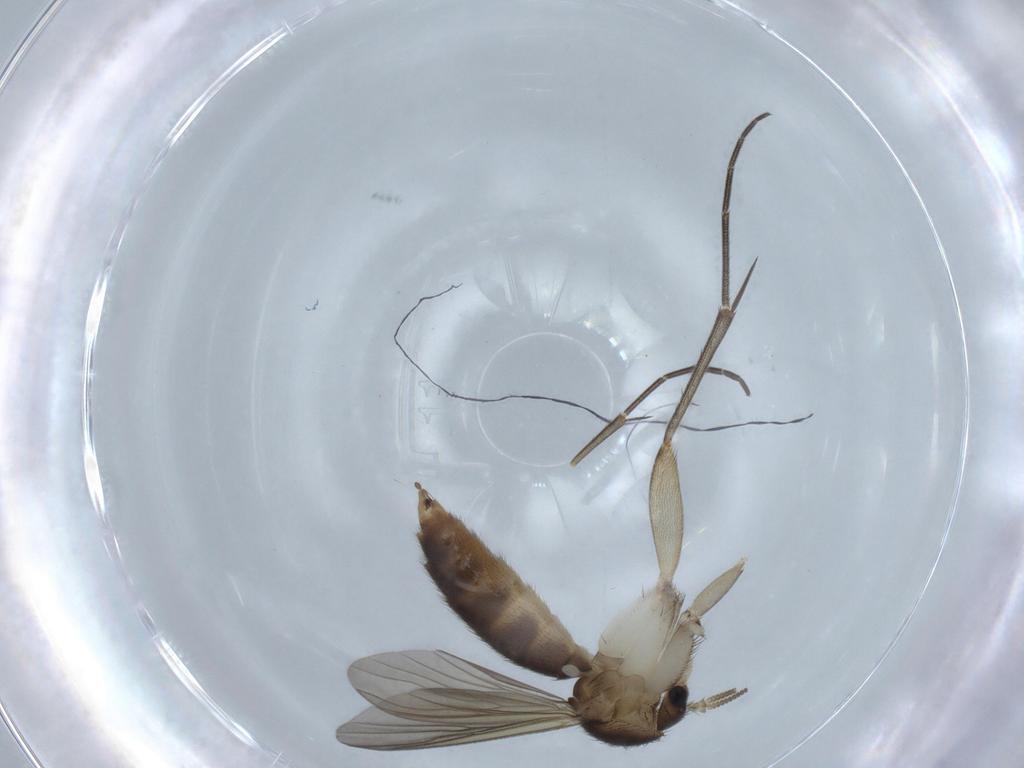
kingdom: Animalia
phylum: Arthropoda
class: Insecta
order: Diptera
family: Mycetophilidae
